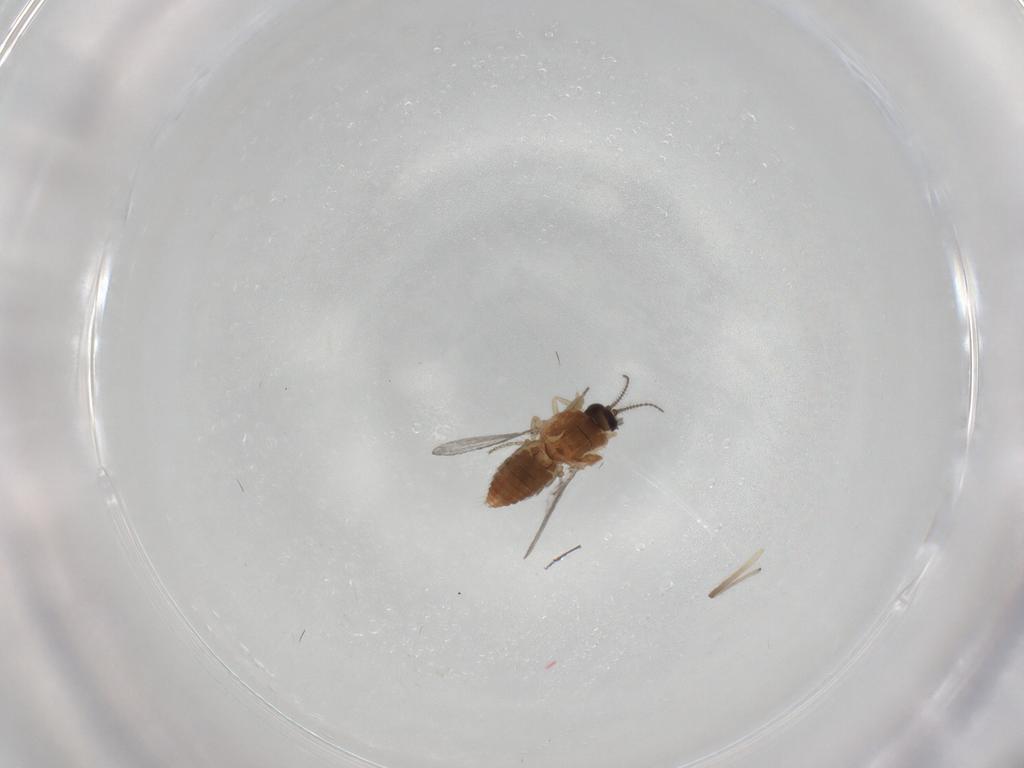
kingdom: Animalia
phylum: Arthropoda
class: Insecta
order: Diptera
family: Chironomidae
